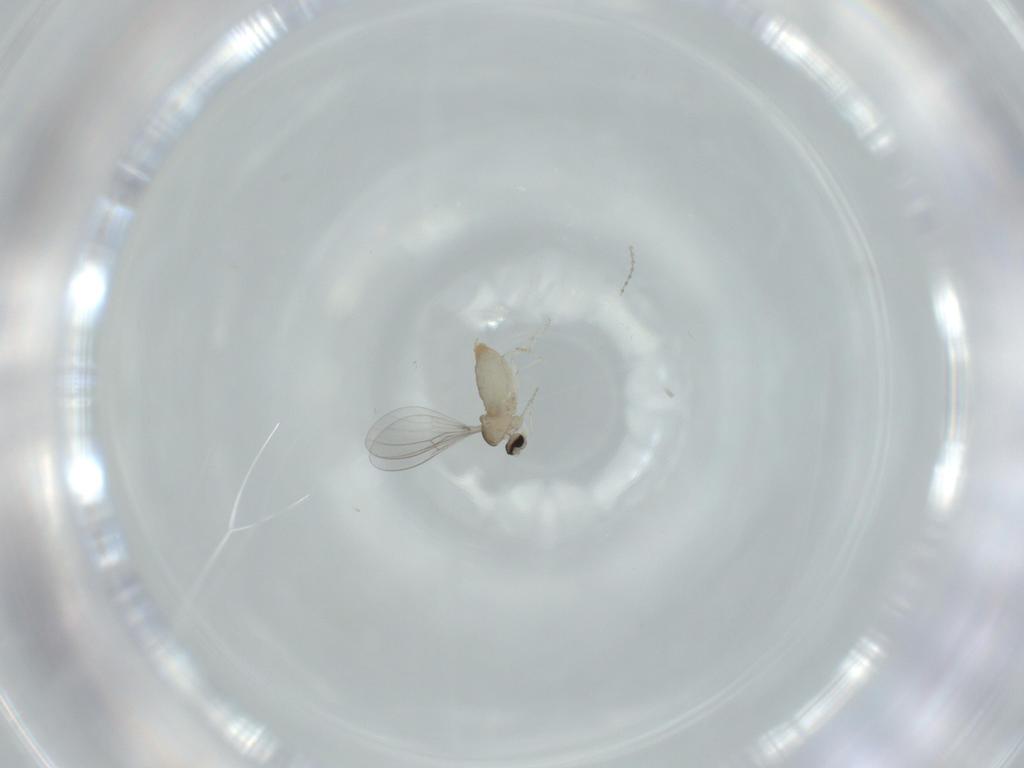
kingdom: Animalia
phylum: Arthropoda
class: Insecta
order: Diptera
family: Cecidomyiidae
